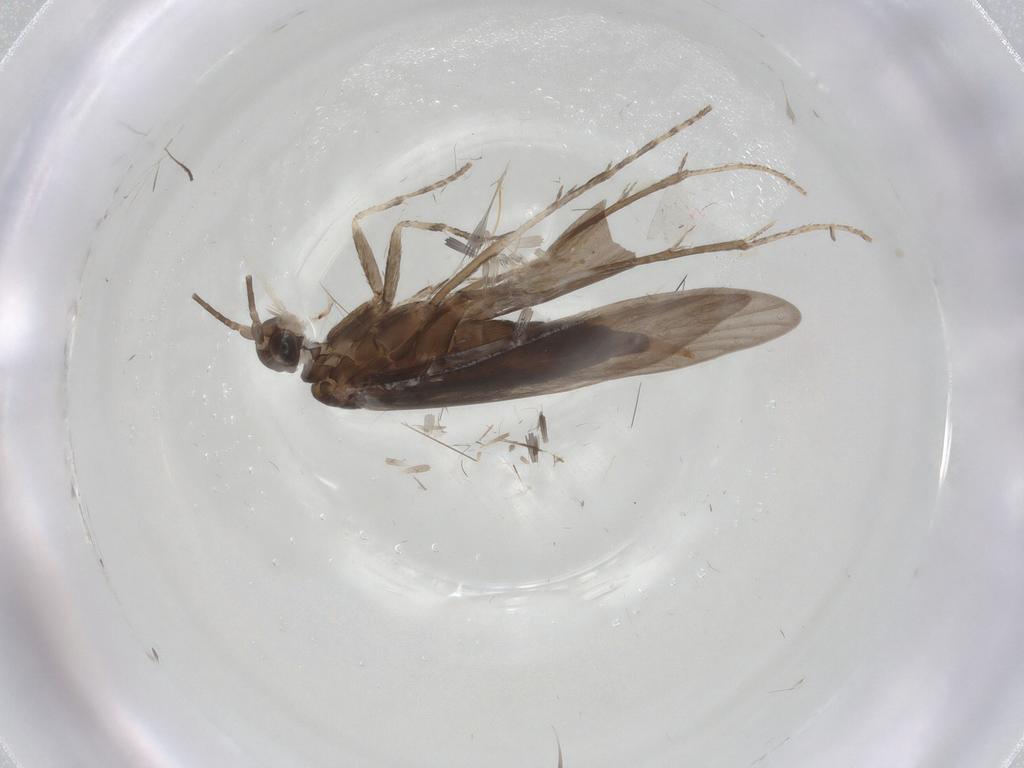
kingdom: Animalia
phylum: Arthropoda
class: Insecta
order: Trichoptera
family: Xiphocentronidae
